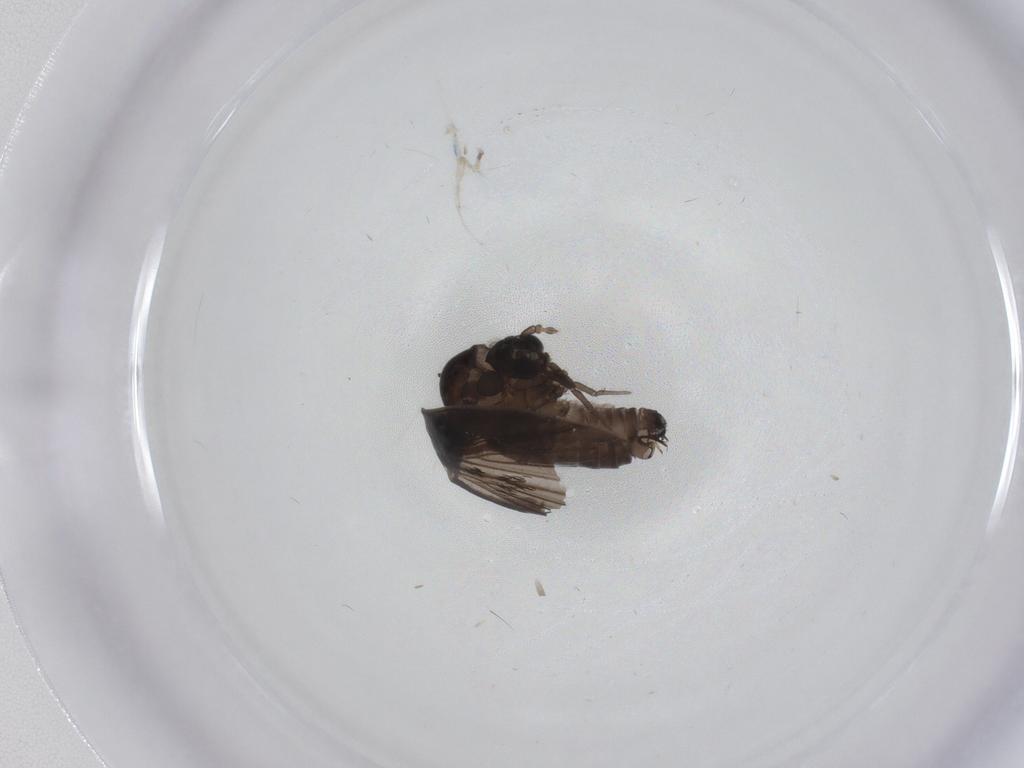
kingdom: Animalia
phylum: Arthropoda
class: Insecta
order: Diptera
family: Psychodidae
